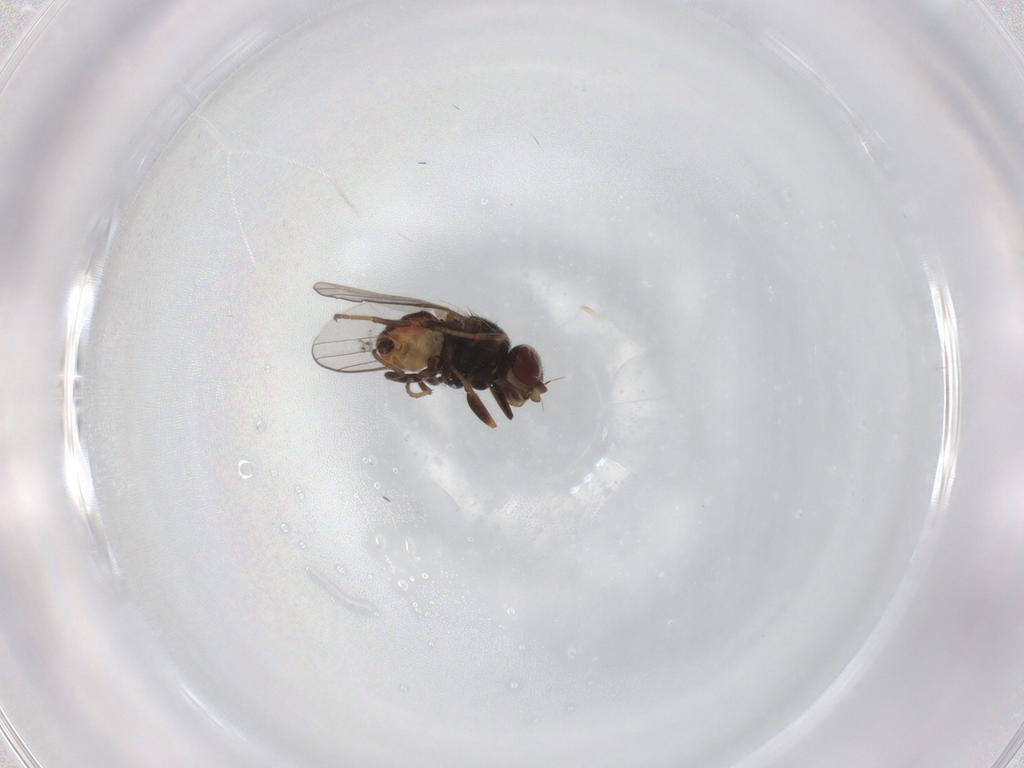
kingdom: Animalia
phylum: Arthropoda
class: Insecta
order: Diptera
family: Chloropidae
